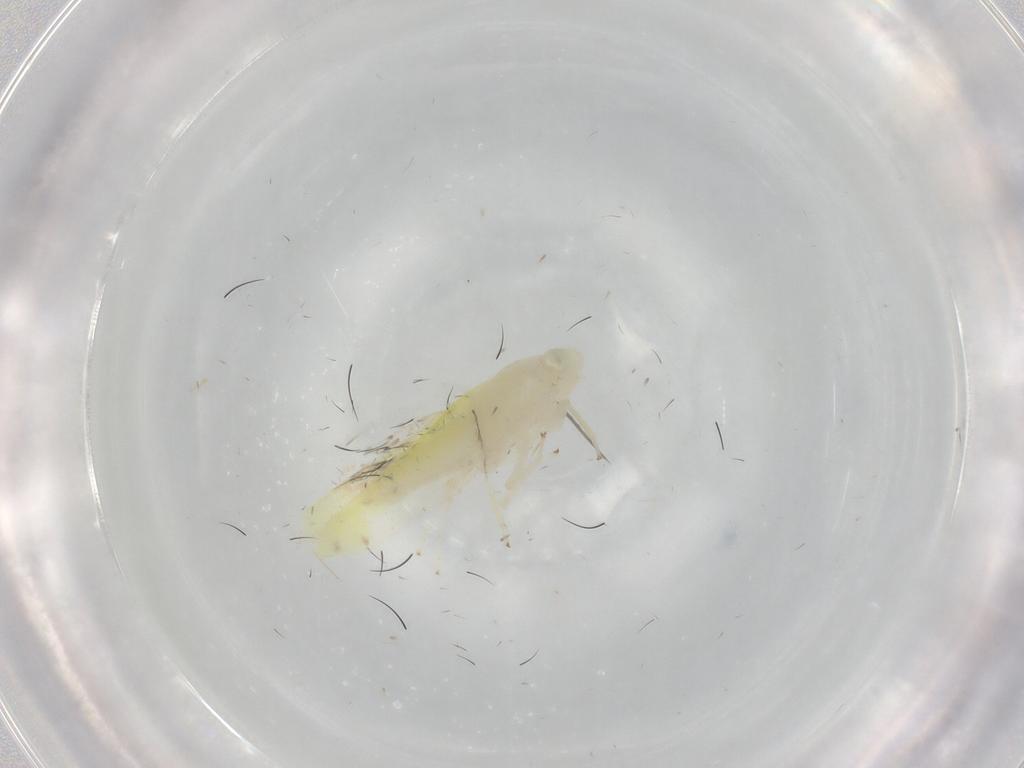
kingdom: Animalia
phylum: Arthropoda
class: Insecta
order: Hemiptera
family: Cicadellidae
